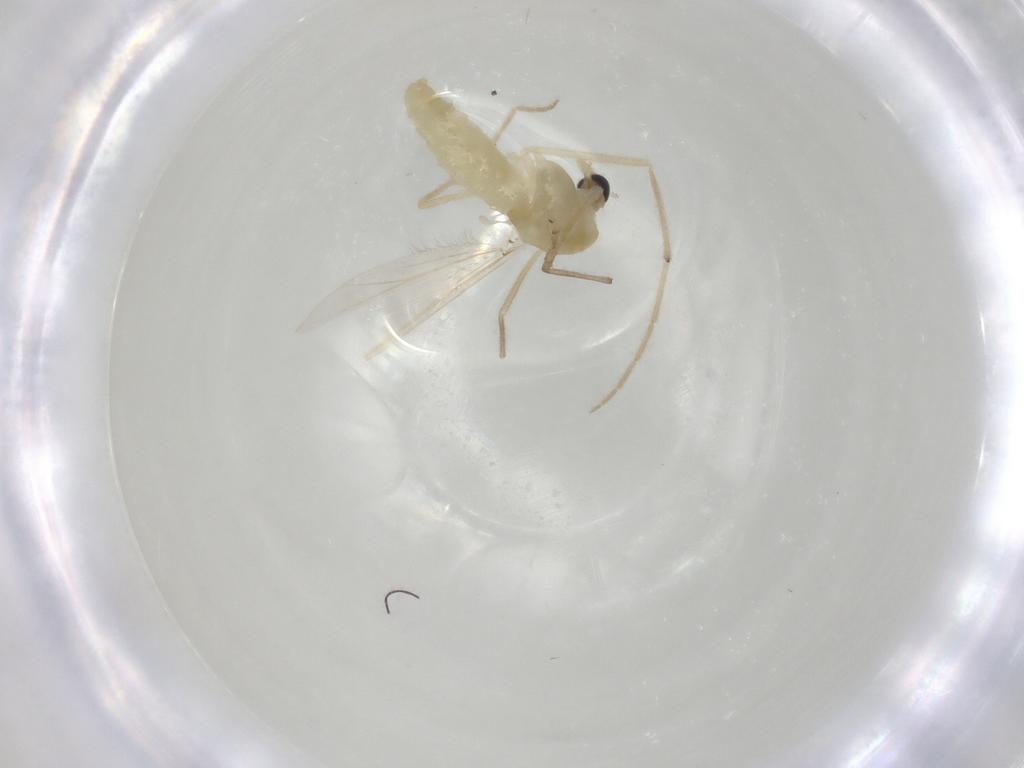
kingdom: Animalia
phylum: Arthropoda
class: Insecta
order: Diptera
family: Chironomidae
